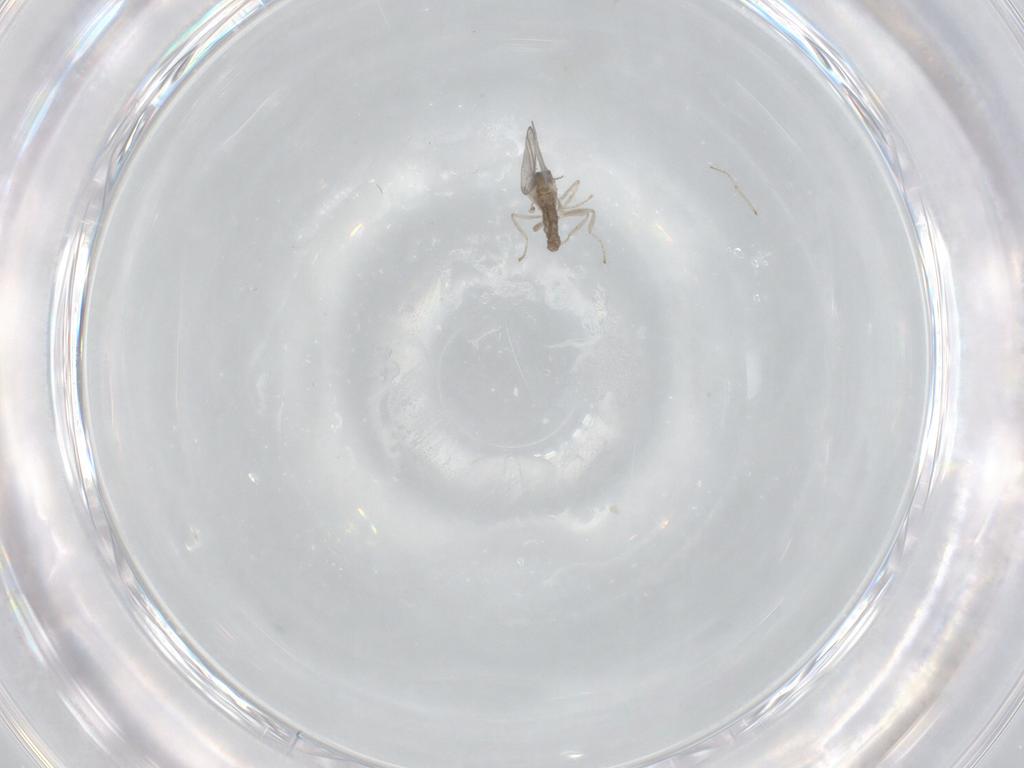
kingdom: Animalia
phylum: Arthropoda
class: Insecta
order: Diptera
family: Cecidomyiidae
